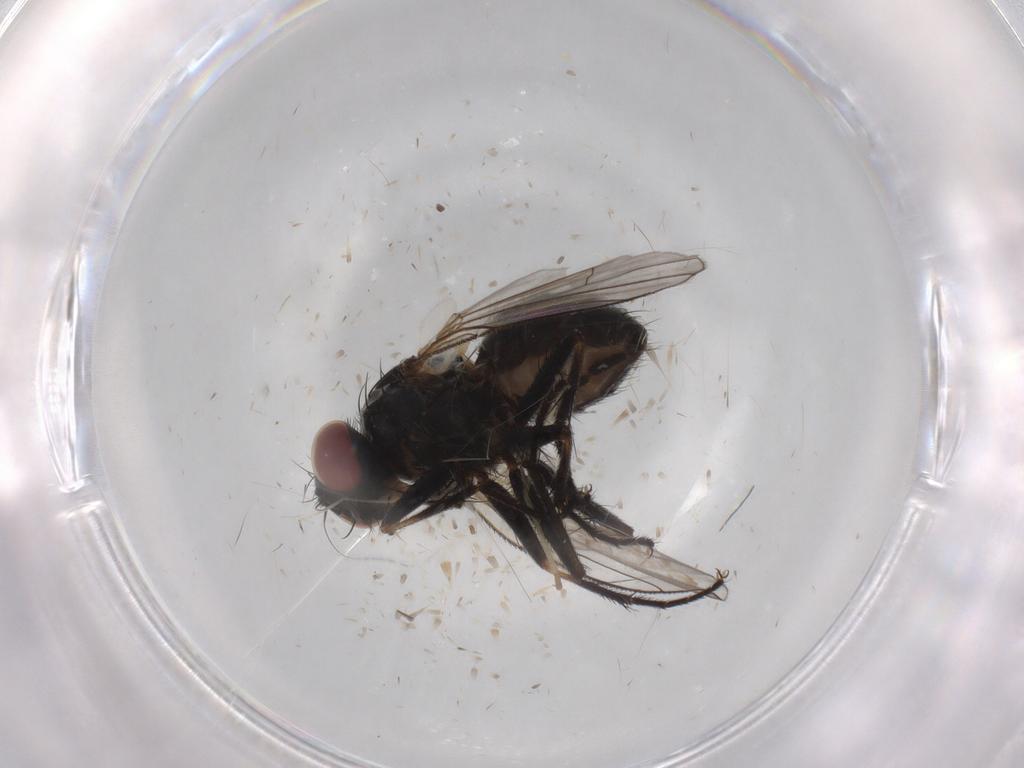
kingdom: Animalia
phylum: Arthropoda
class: Insecta
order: Diptera
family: Muscidae
